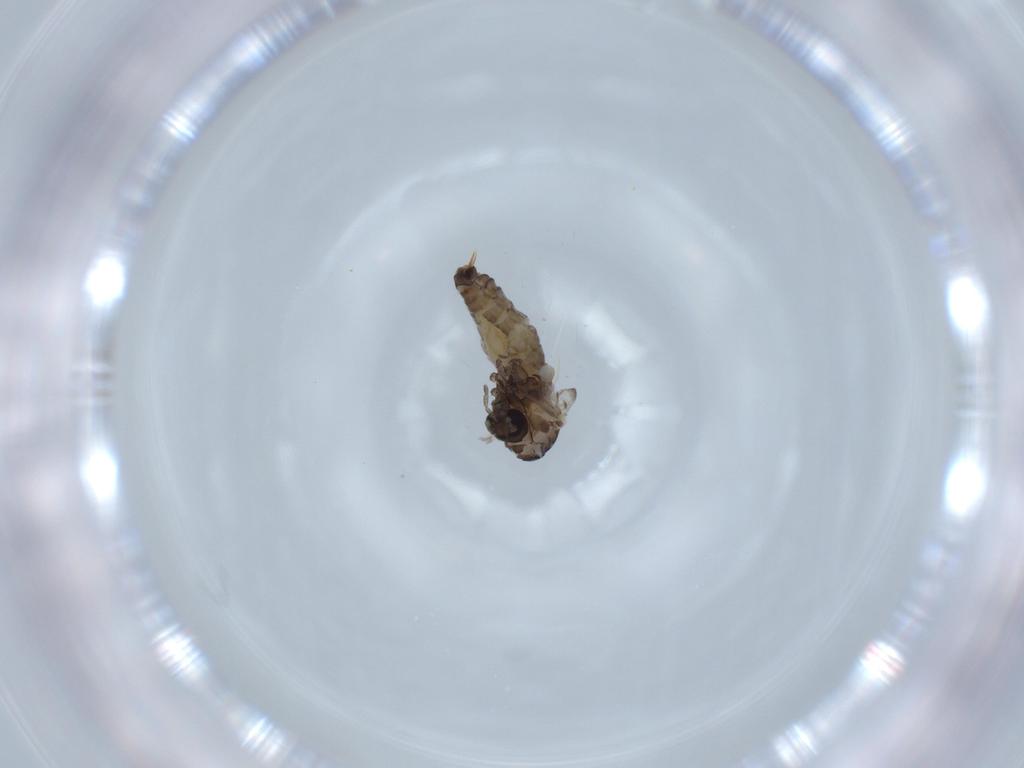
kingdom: Animalia
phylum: Arthropoda
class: Insecta
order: Diptera
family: Psychodidae
